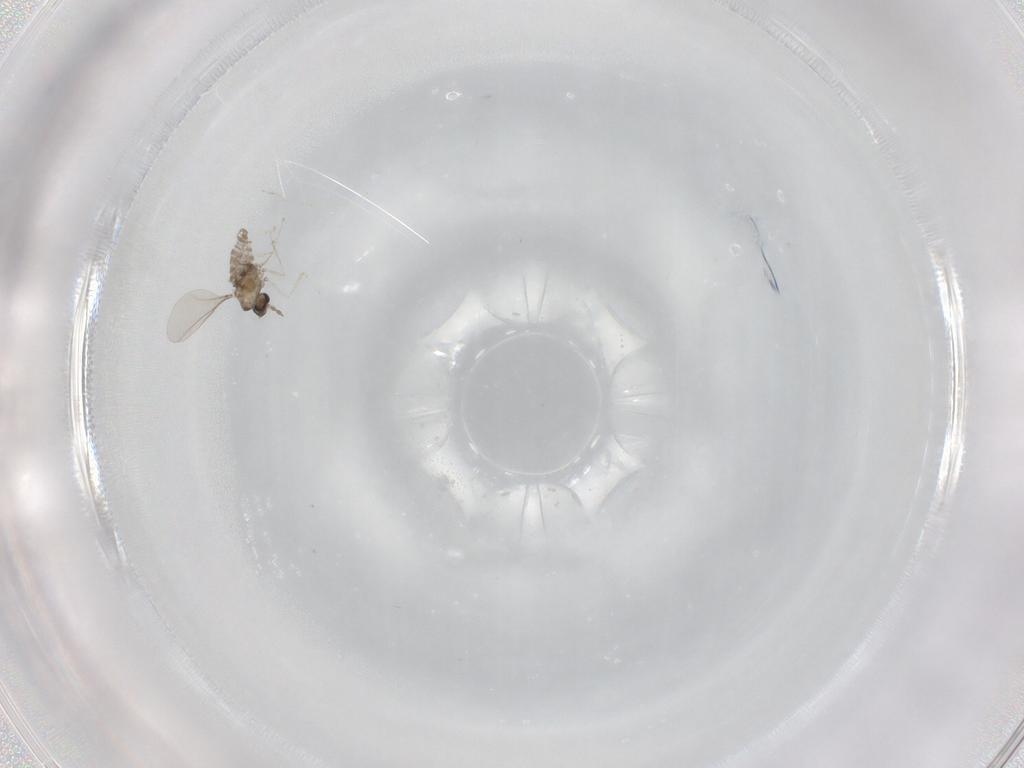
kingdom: Animalia
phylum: Arthropoda
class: Insecta
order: Diptera
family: Cecidomyiidae
